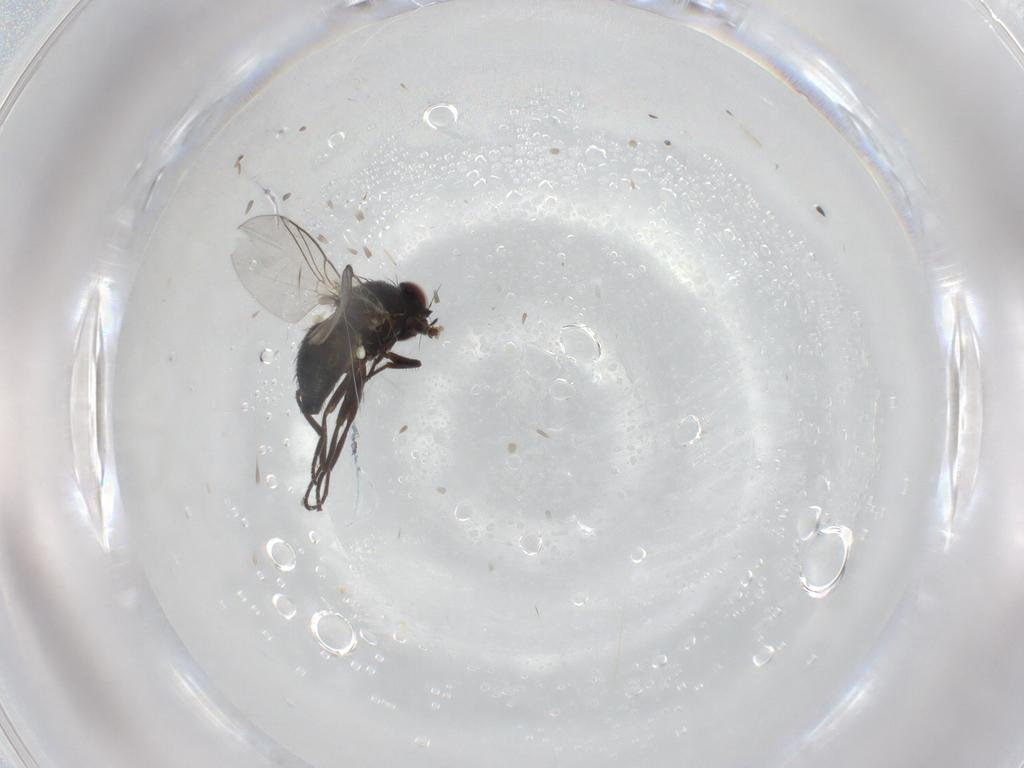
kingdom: Animalia
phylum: Arthropoda
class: Insecta
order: Diptera
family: Agromyzidae
